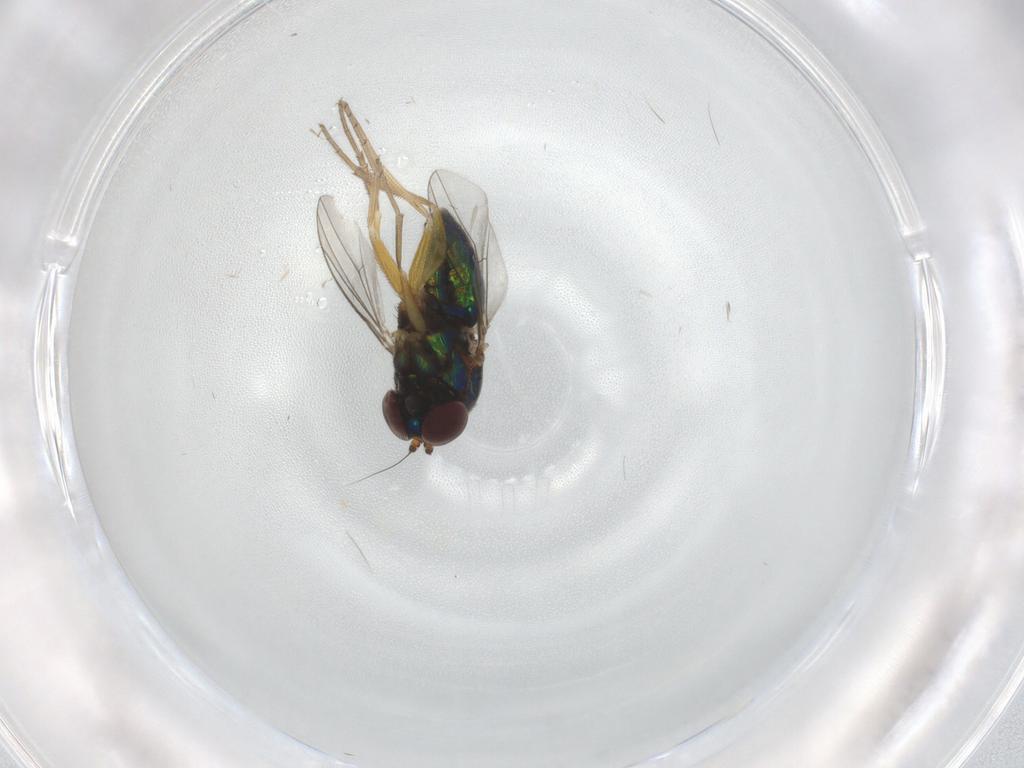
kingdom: Animalia
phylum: Arthropoda
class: Insecta
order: Diptera
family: Dolichopodidae
